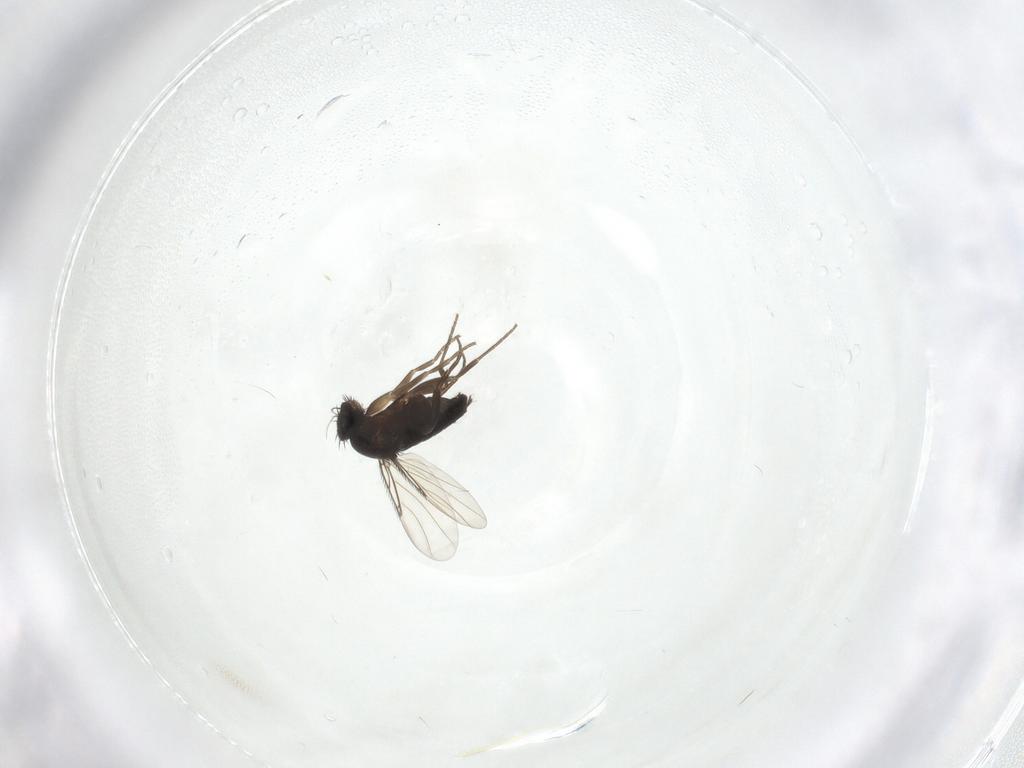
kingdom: Animalia
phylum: Arthropoda
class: Insecta
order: Diptera
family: Phoridae
